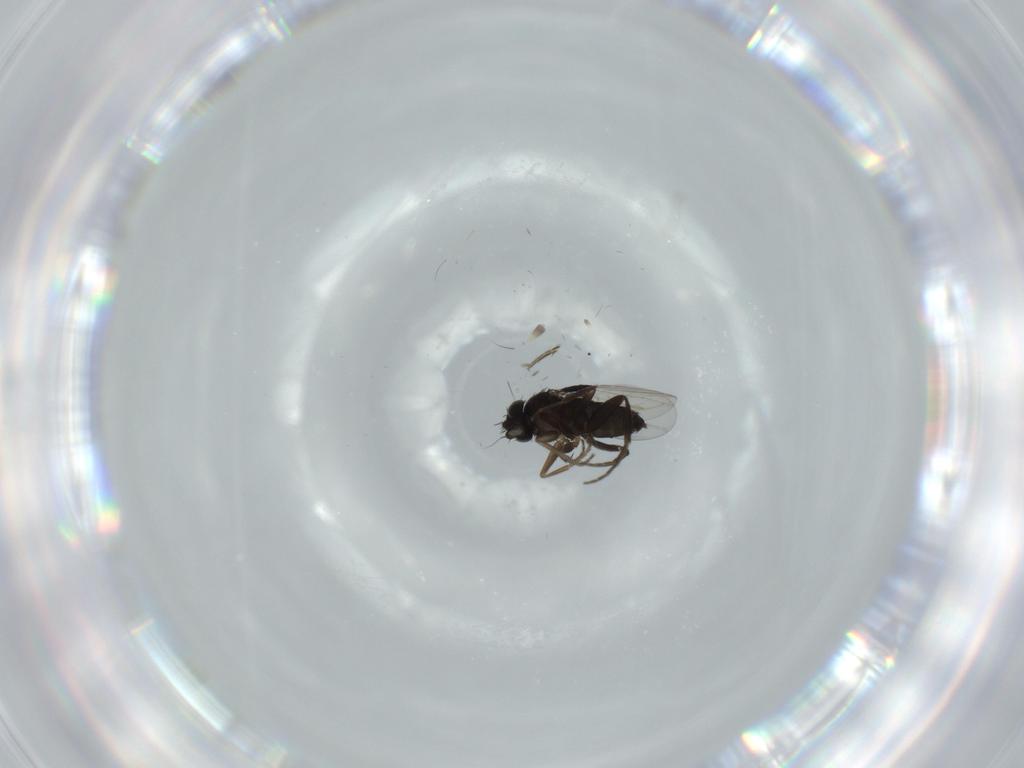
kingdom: Animalia
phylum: Arthropoda
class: Insecta
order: Diptera
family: Phoridae
